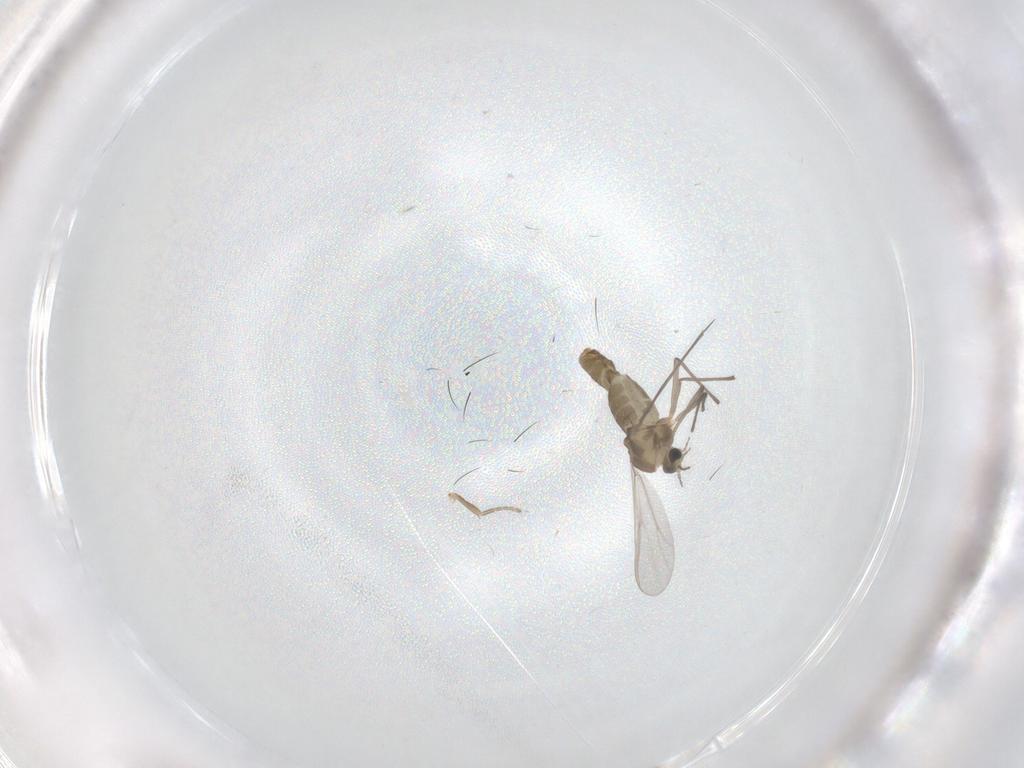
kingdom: Animalia
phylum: Arthropoda
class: Insecta
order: Diptera
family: Phoridae
